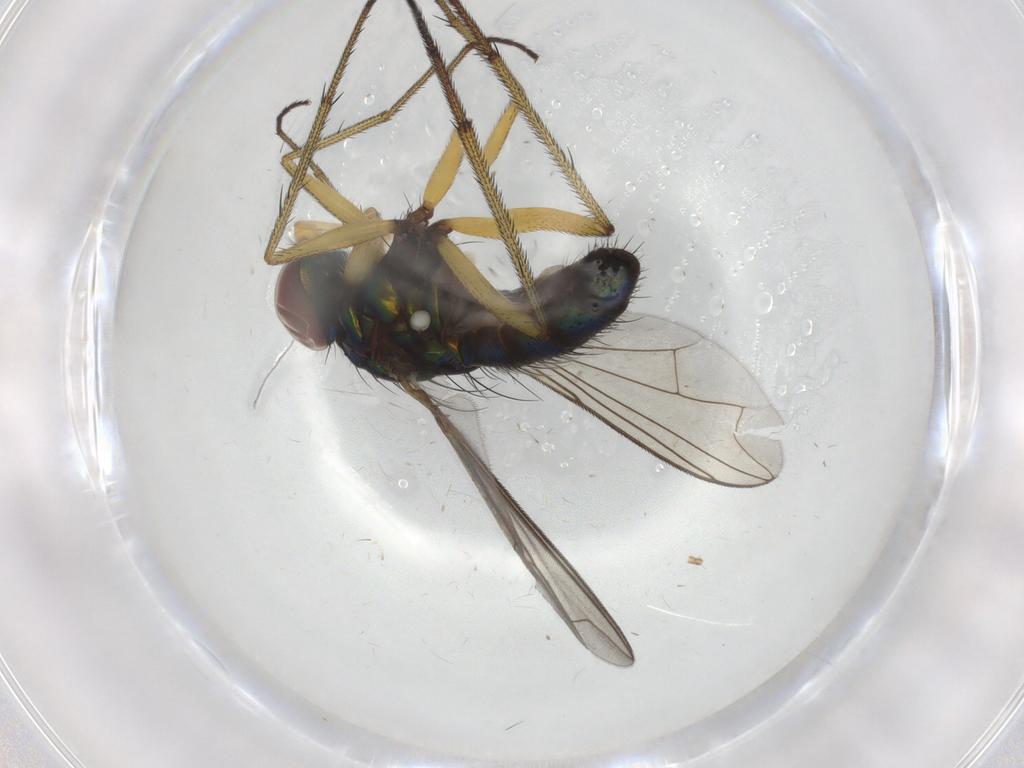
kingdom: Animalia
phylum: Arthropoda
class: Insecta
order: Diptera
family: Dolichopodidae
